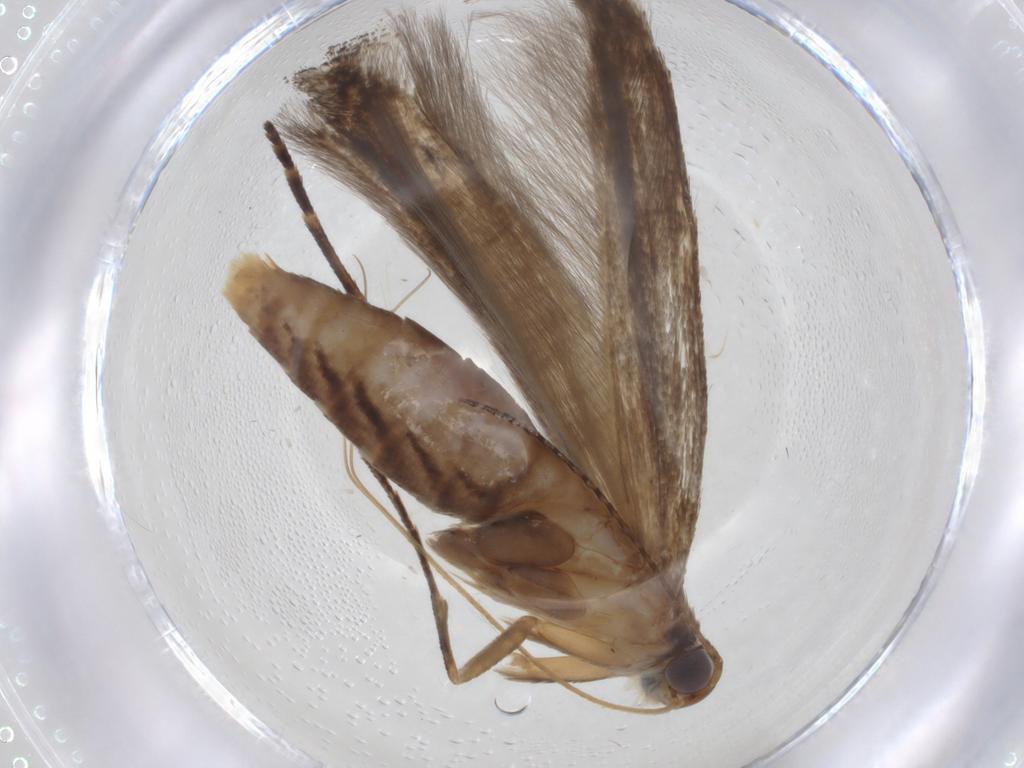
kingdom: Animalia
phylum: Arthropoda
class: Insecta
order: Lepidoptera
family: Gelechiidae
